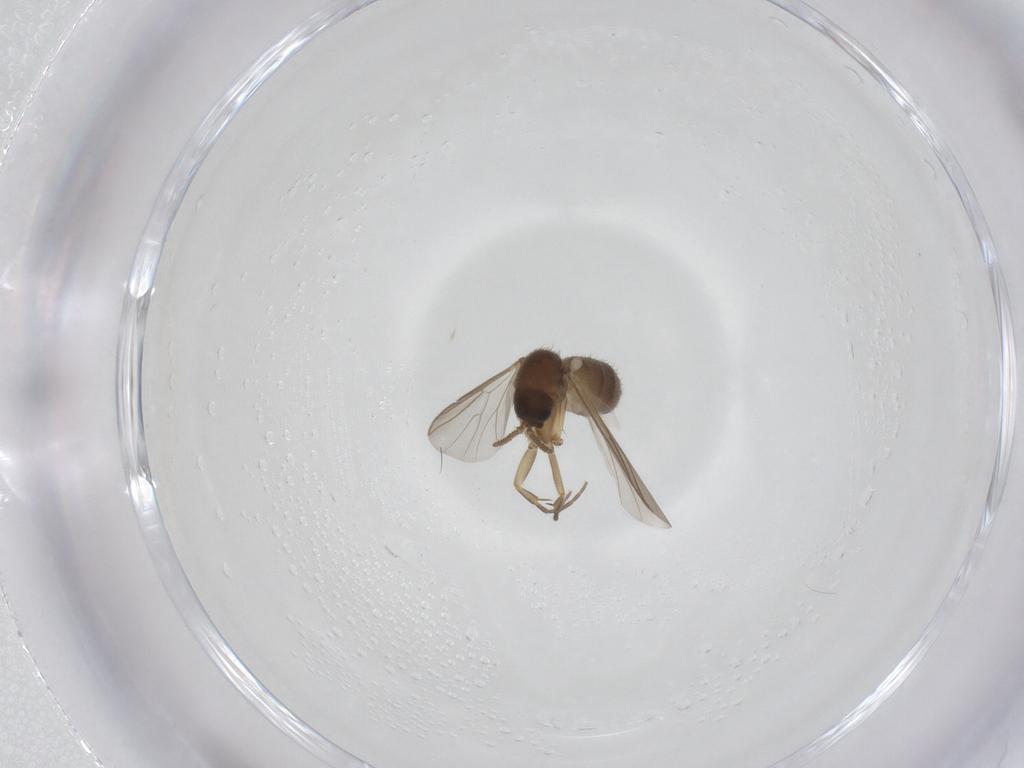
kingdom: Animalia
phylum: Arthropoda
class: Insecta
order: Diptera
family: Mycetophilidae
